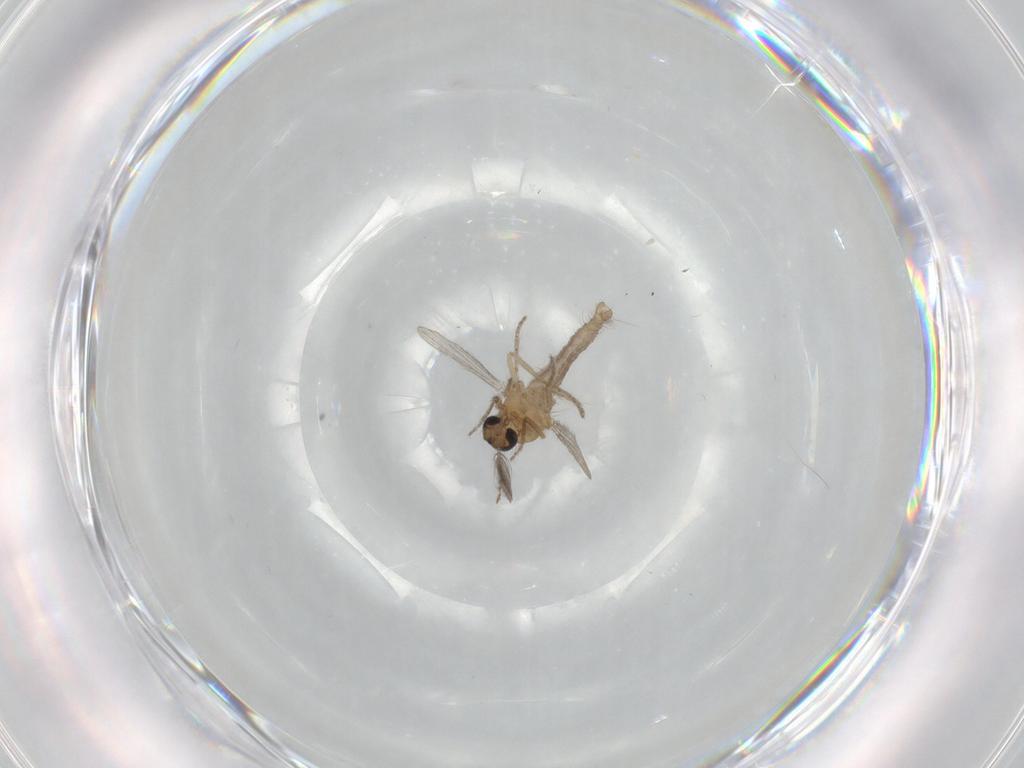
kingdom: Animalia
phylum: Arthropoda
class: Insecta
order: Diptera
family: Ceratopogonidae
